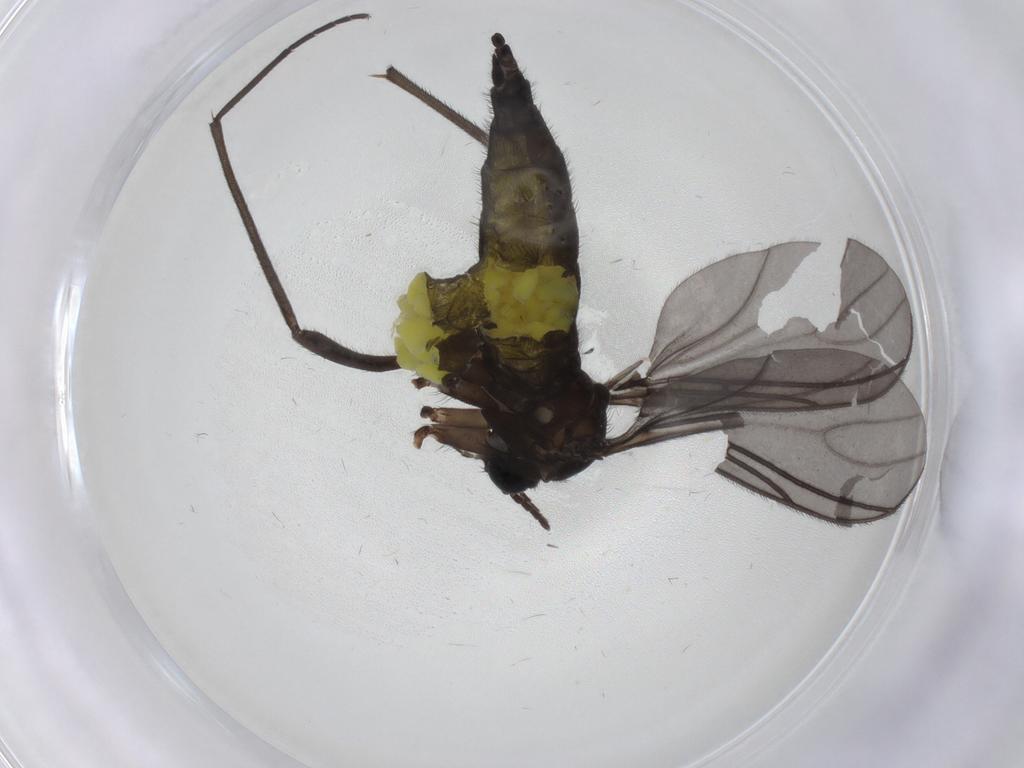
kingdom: Animalia
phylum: Arthropoda
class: Insecta
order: Diptera
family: Sciaridae
